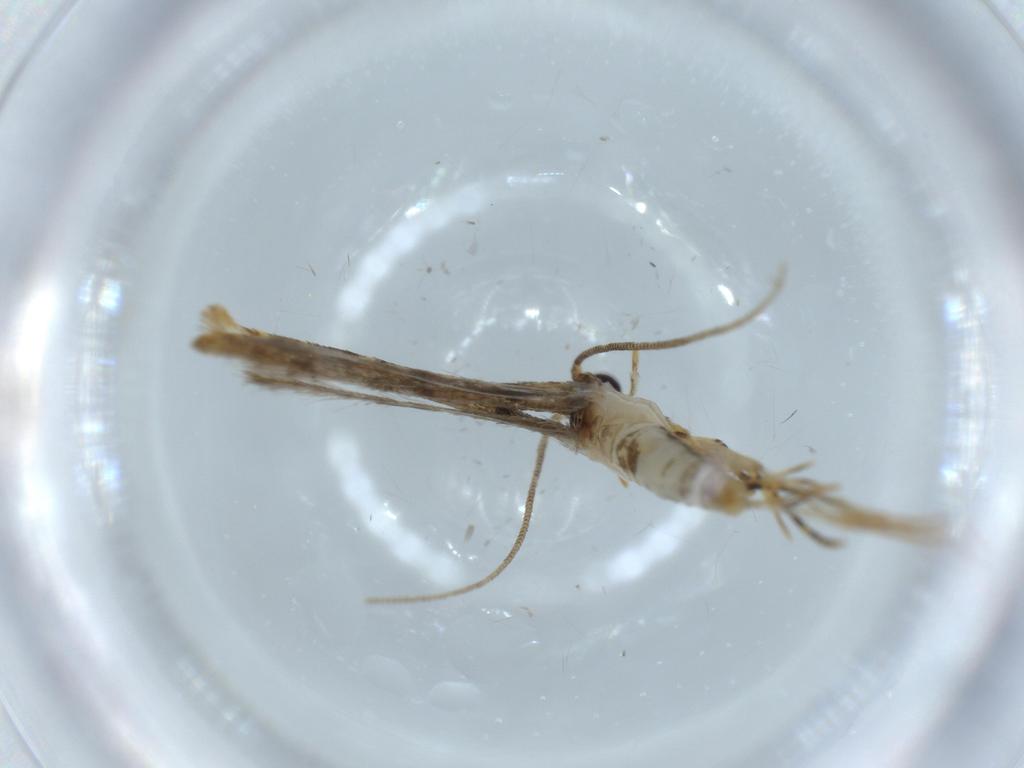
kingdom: Animalia
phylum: Arthropoda
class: Insecta
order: Lepidoptera
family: Tineidae
